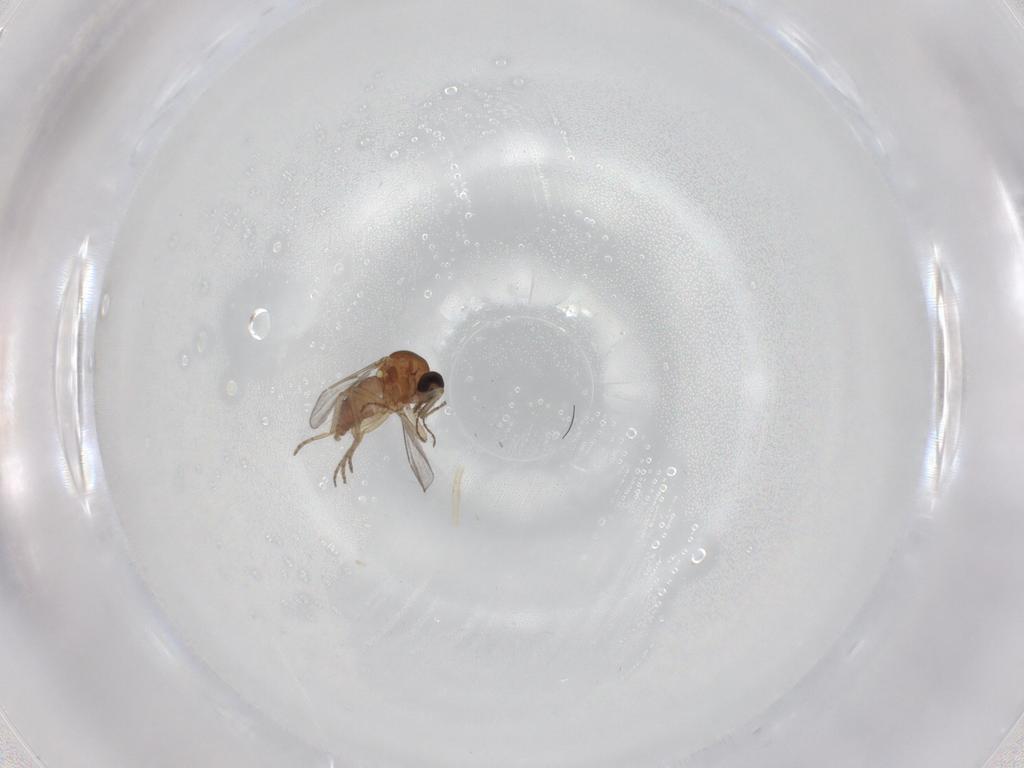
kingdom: Animalia
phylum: Arthropoda
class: Insecta
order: Diptera
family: Ceratopogonidae
